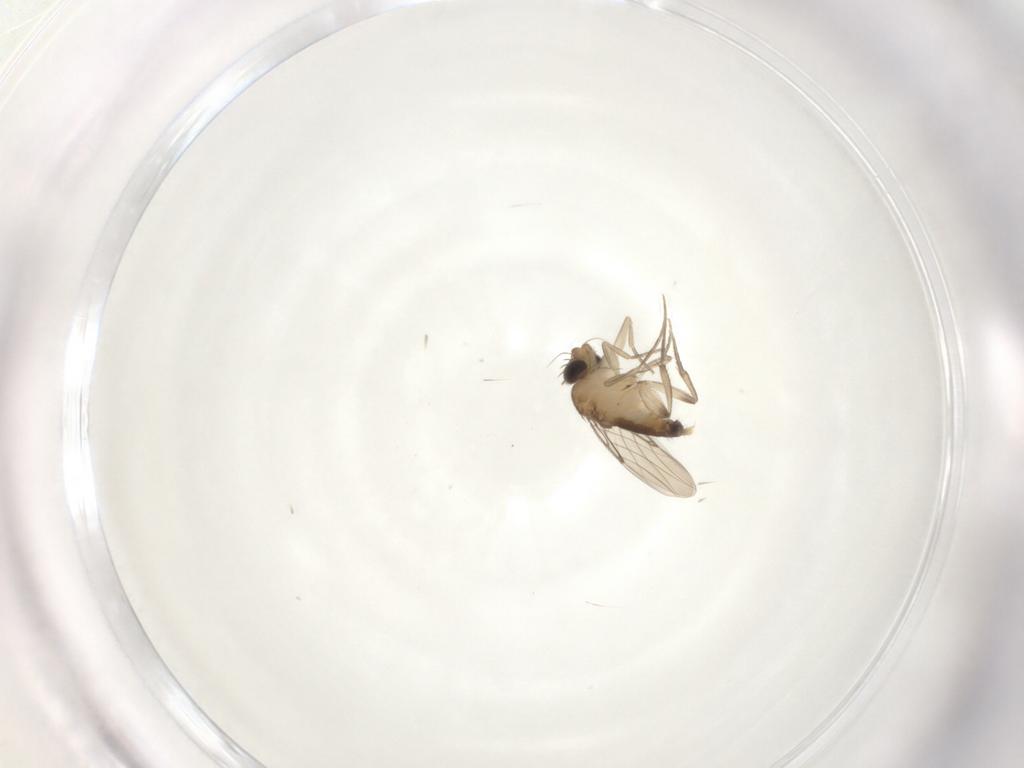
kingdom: Animalia
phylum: Arthropoda
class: Insecta
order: Diptera
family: Phoridae
